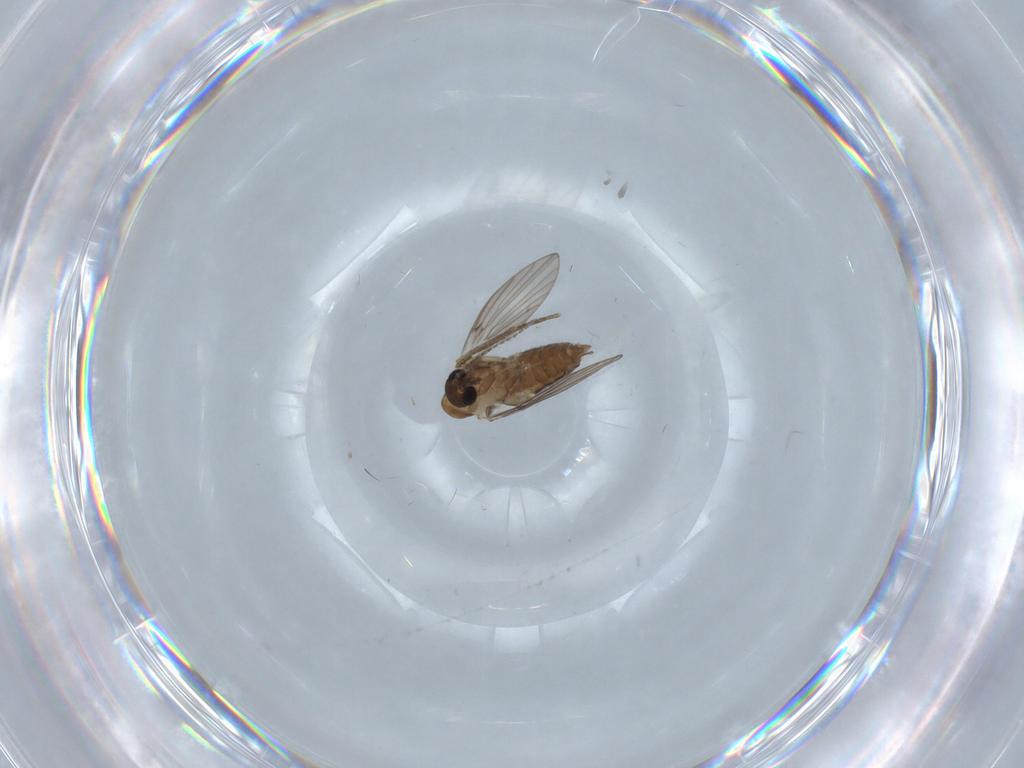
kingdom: Animalia
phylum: Arthropoda
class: Insecta
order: Diptera
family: Psychodidae
